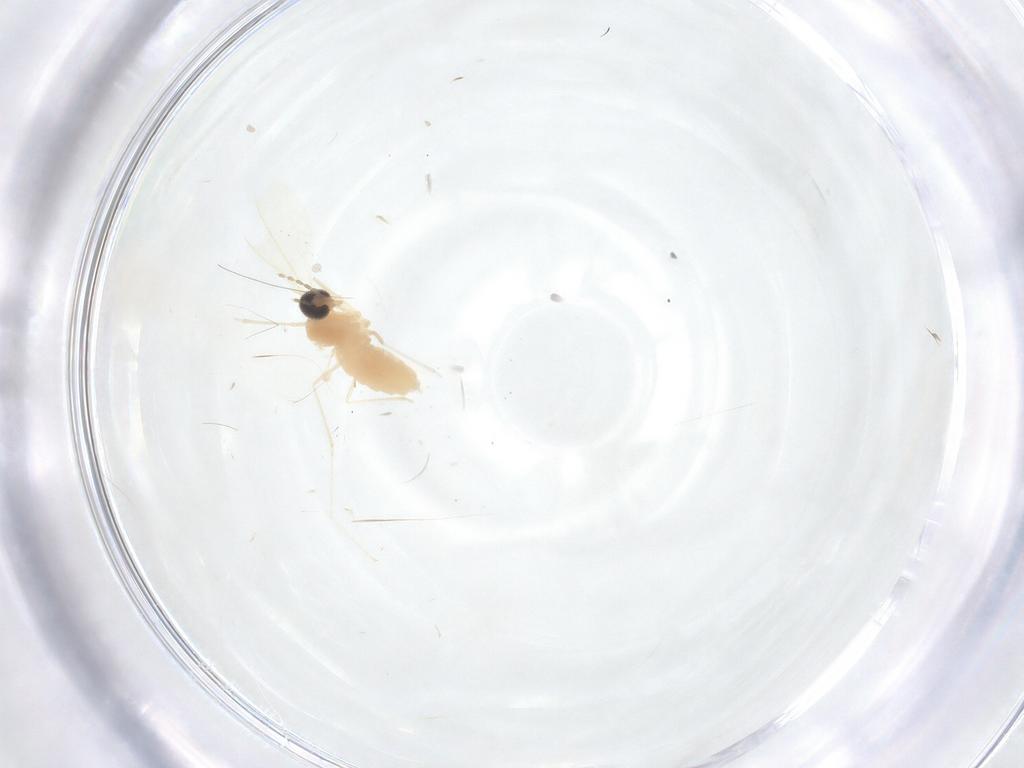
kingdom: Animalia
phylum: Arthropoda
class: Insecta
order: Diptera
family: Cecidomyiidae
